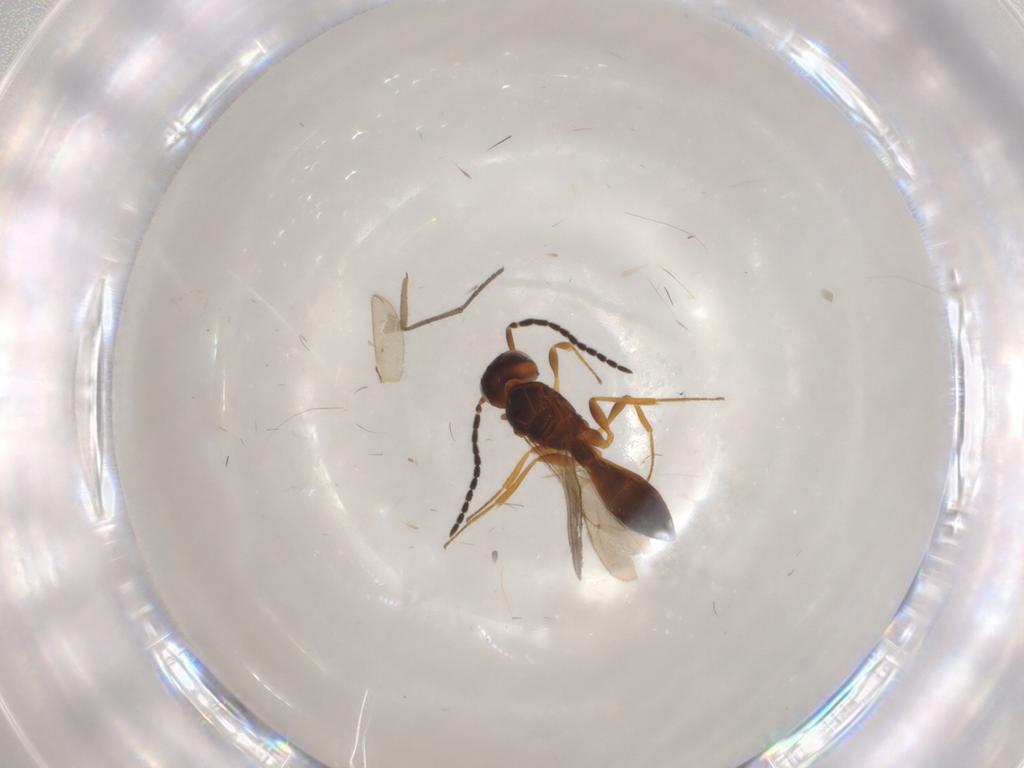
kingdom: Animalia
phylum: Arthropoda
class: Insecta
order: Hymenoptera
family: Scelionidae
